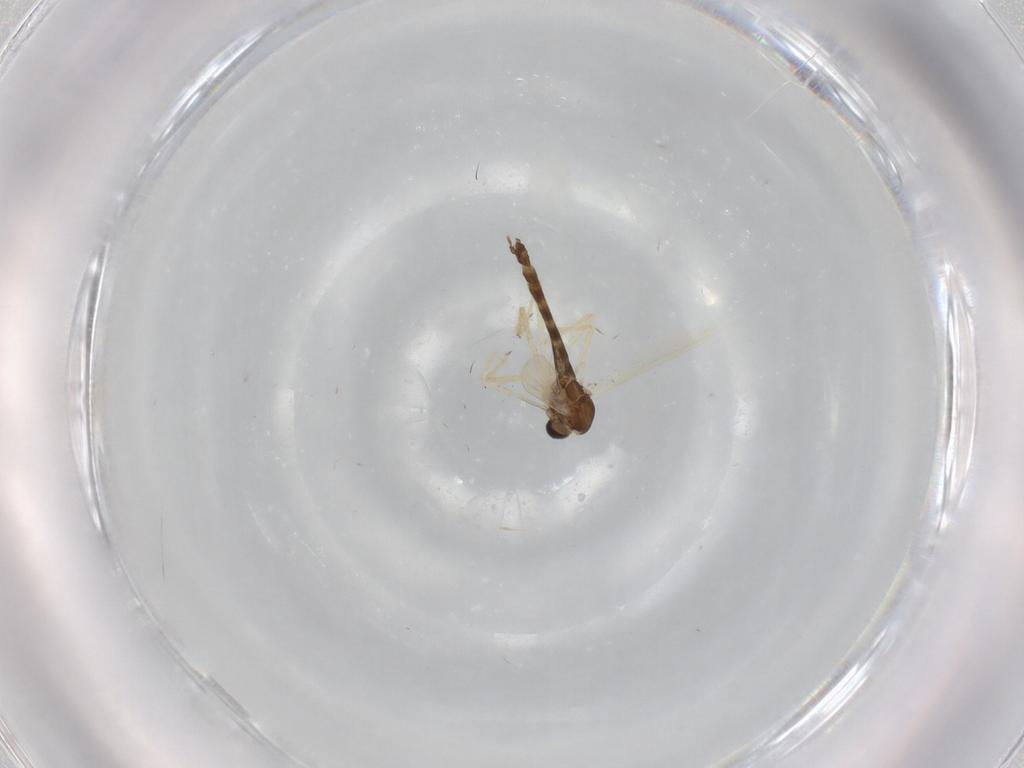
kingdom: Animalia
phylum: Arthropoda
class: Insecta
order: Diptera
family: Chironomidae
